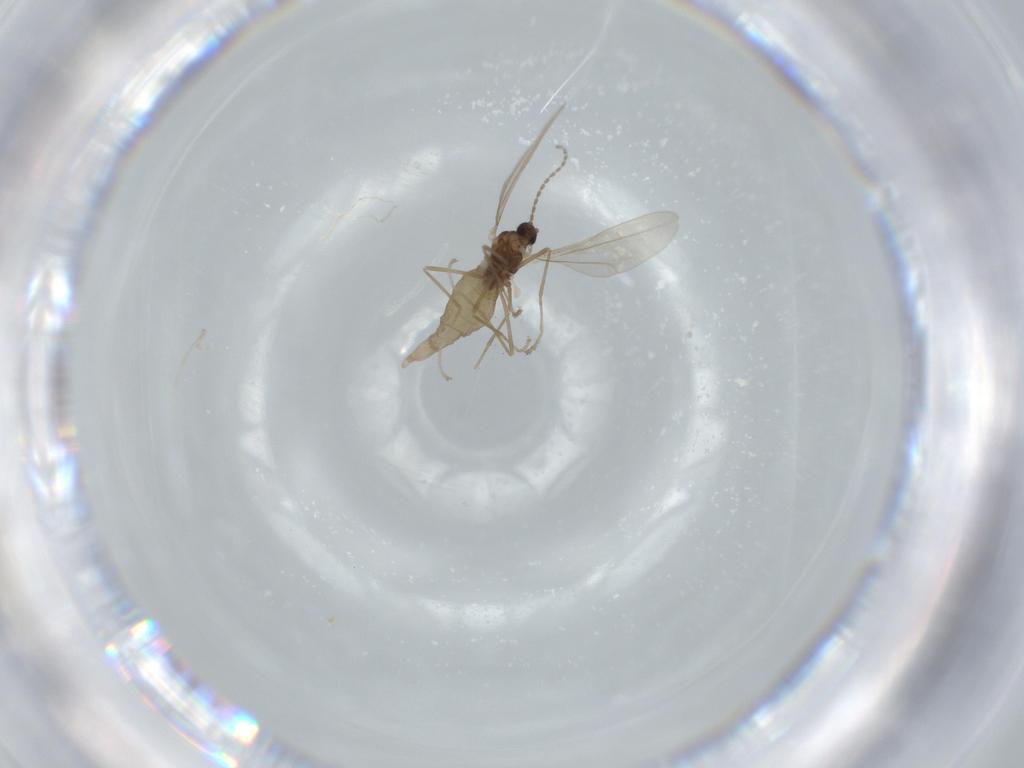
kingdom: Animalia
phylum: Arthropoda
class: Insecta
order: Diptera
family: Cecidomyiidae
